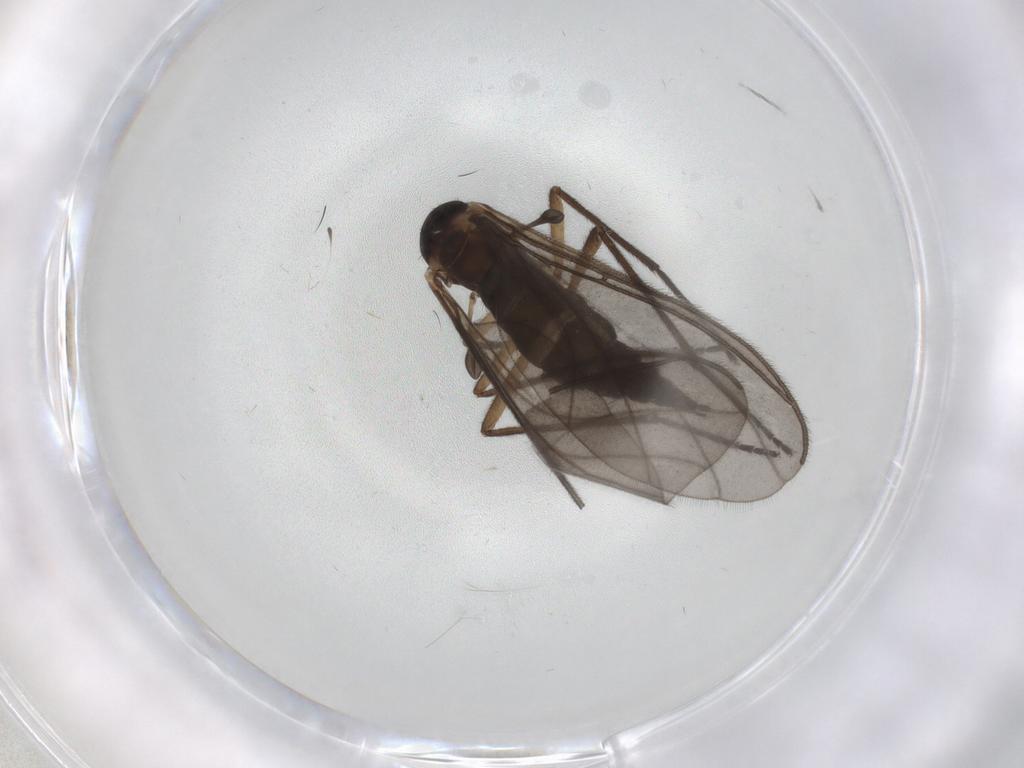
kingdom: Animalia
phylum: Arthropoda
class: Insecta
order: Diptera
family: Sciaridae
